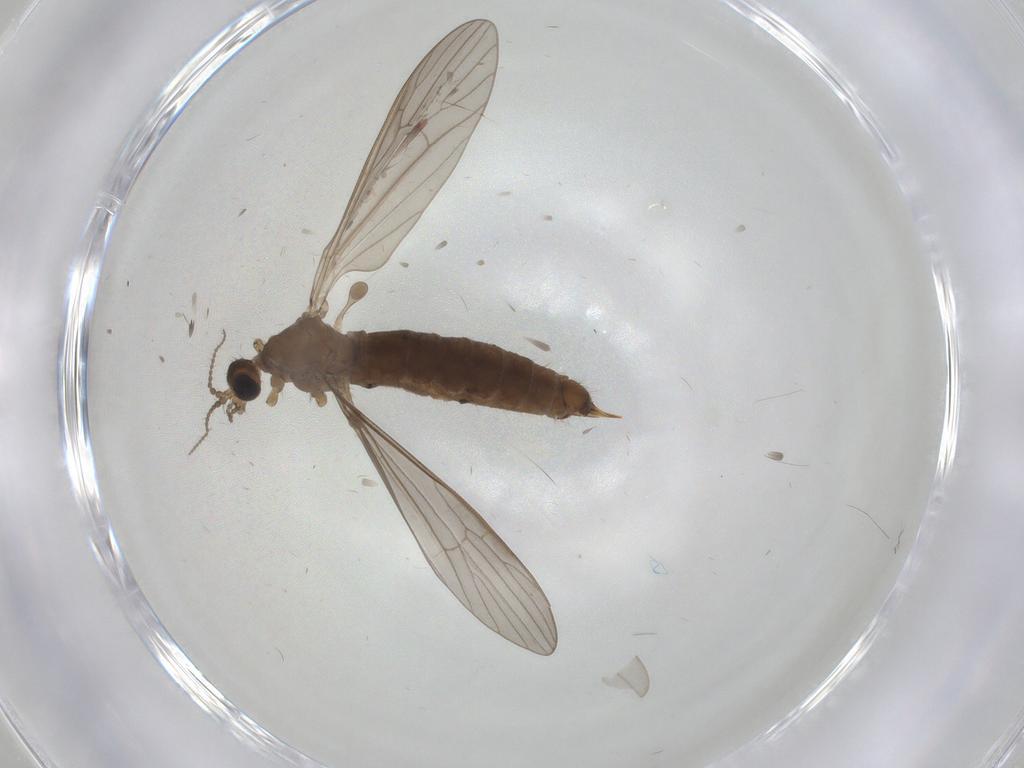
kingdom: Animalia
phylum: Arthropoda
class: Insecta
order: Diptera
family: Limoniidae
